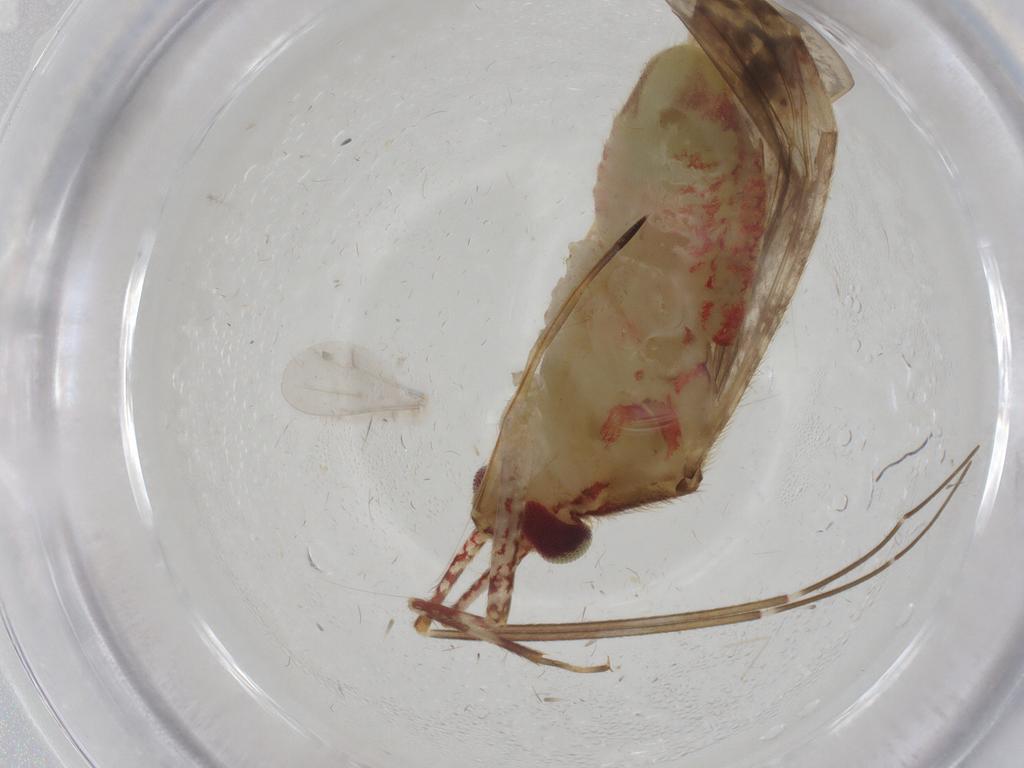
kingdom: Animalia
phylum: Arthropoda
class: Insecta
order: Hemiptera
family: Miridae
